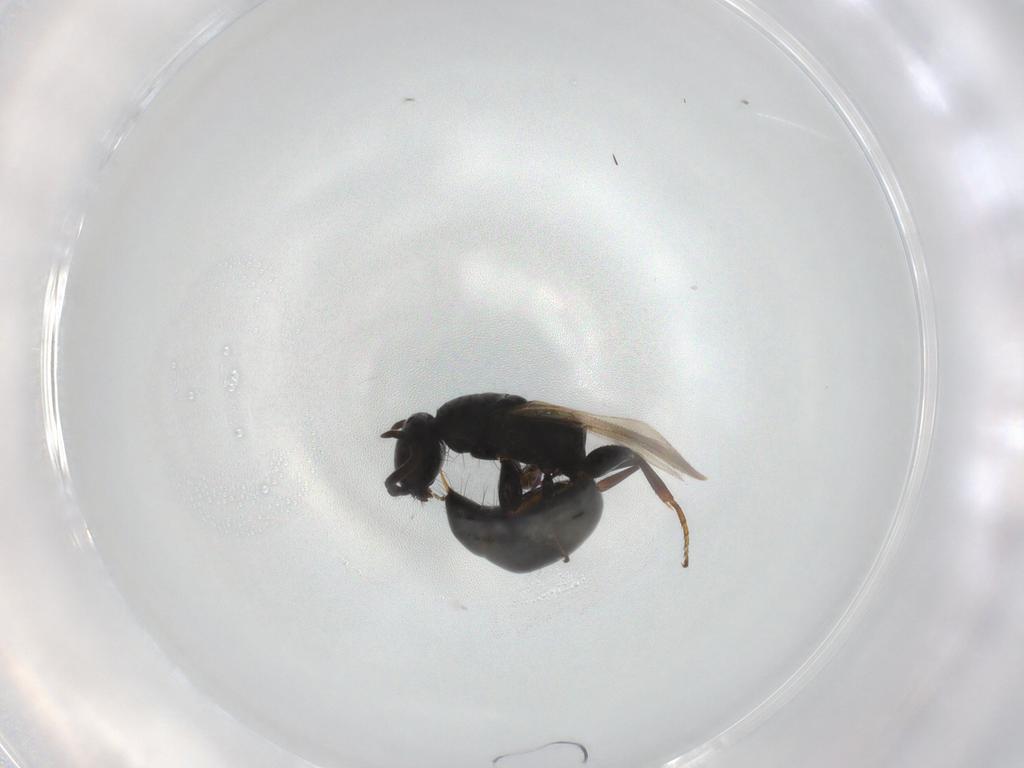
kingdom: Animalia
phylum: Arthropoda
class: Insecta
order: Hymenoptera
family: Bethylidae
